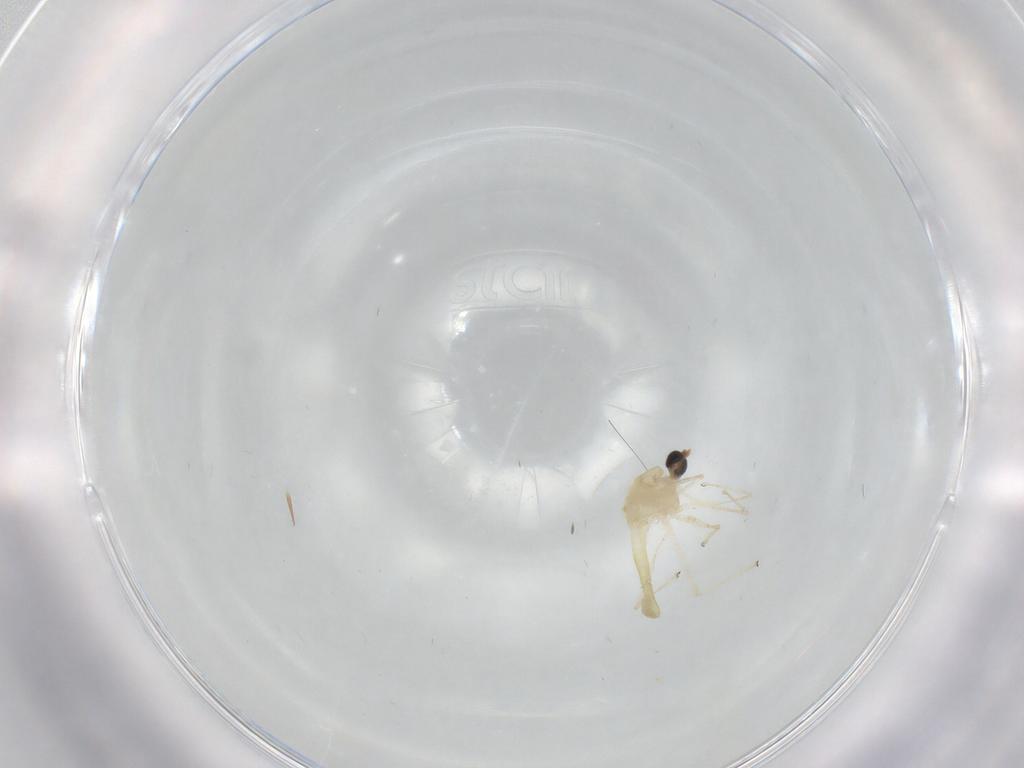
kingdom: Animalia
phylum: Arthropoda
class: Insecta
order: Diptera
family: Chironomidae
